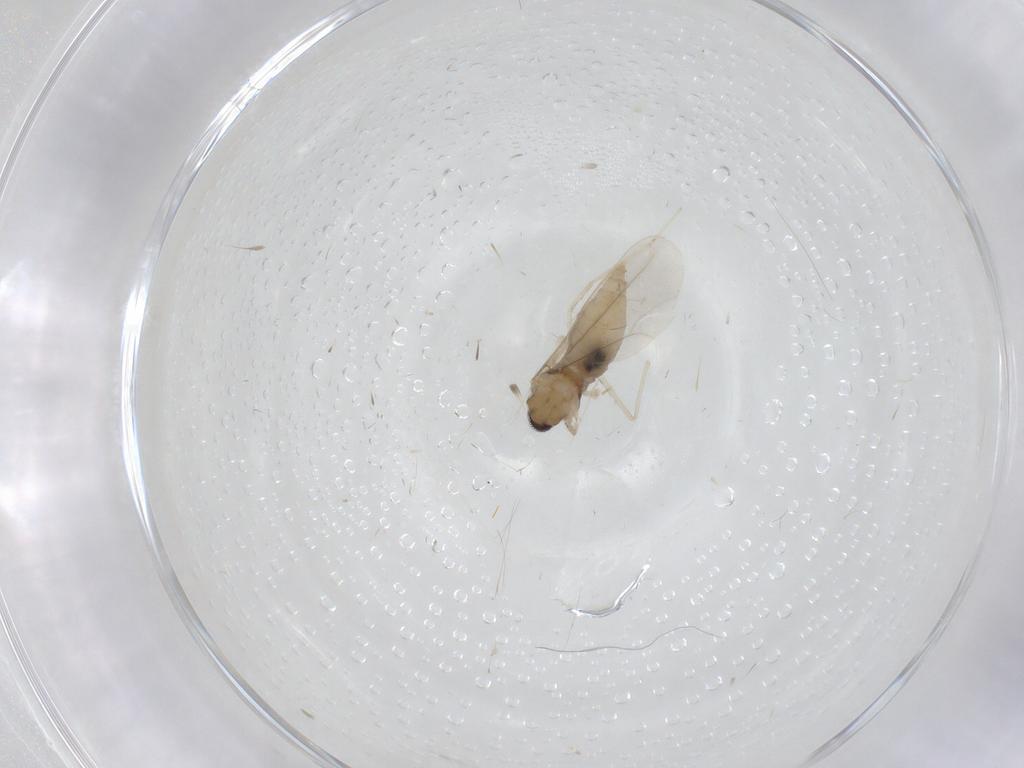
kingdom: Animalia
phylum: Arthropoda
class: Insecta
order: Diptera
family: Cecidomyiidae
